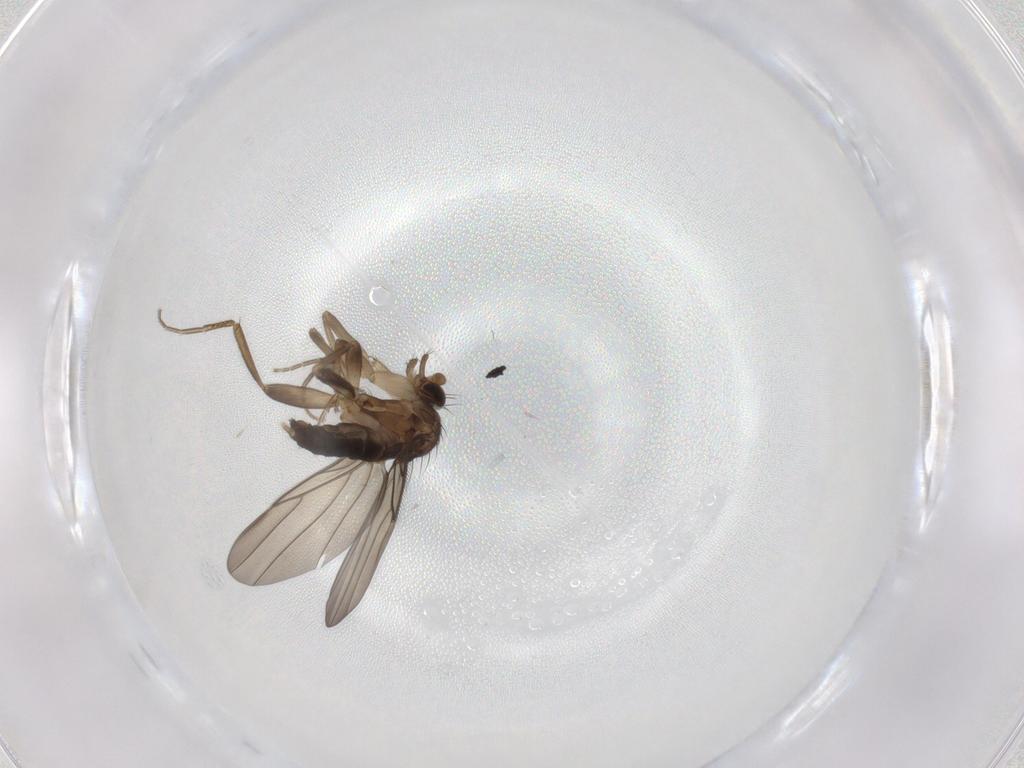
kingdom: Animalia
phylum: Arthropoda
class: Insecta
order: Diptera
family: Phoridae
